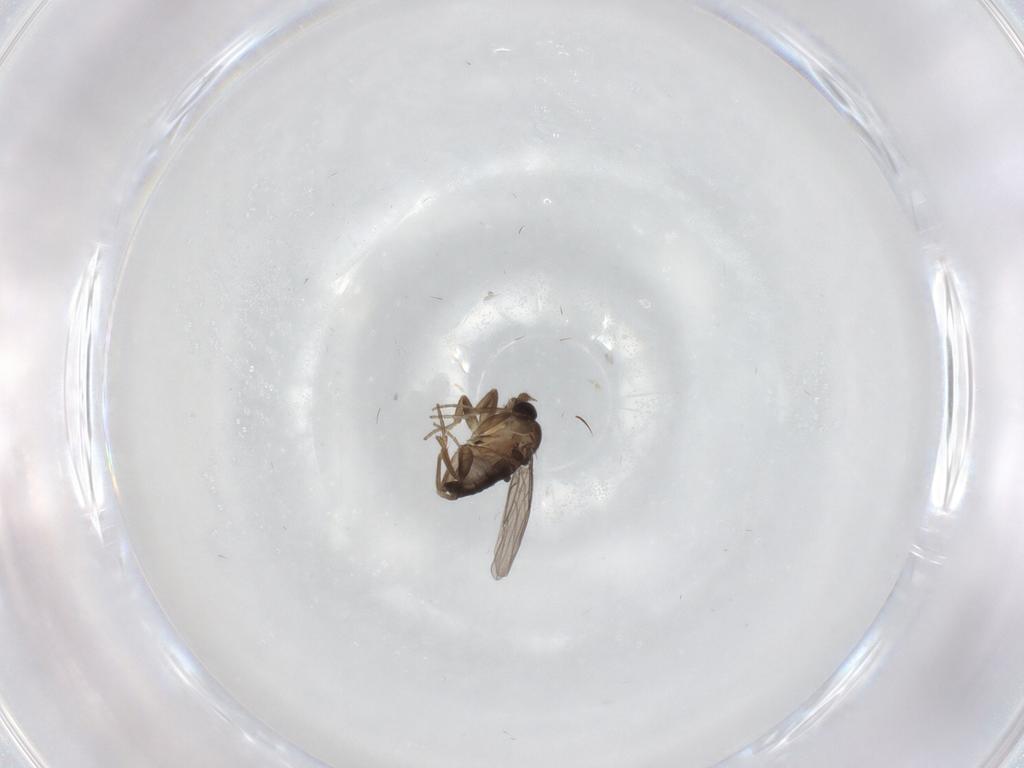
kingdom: Animalia
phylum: Arthropoda
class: Insecta
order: Diptera
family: Phoridae
